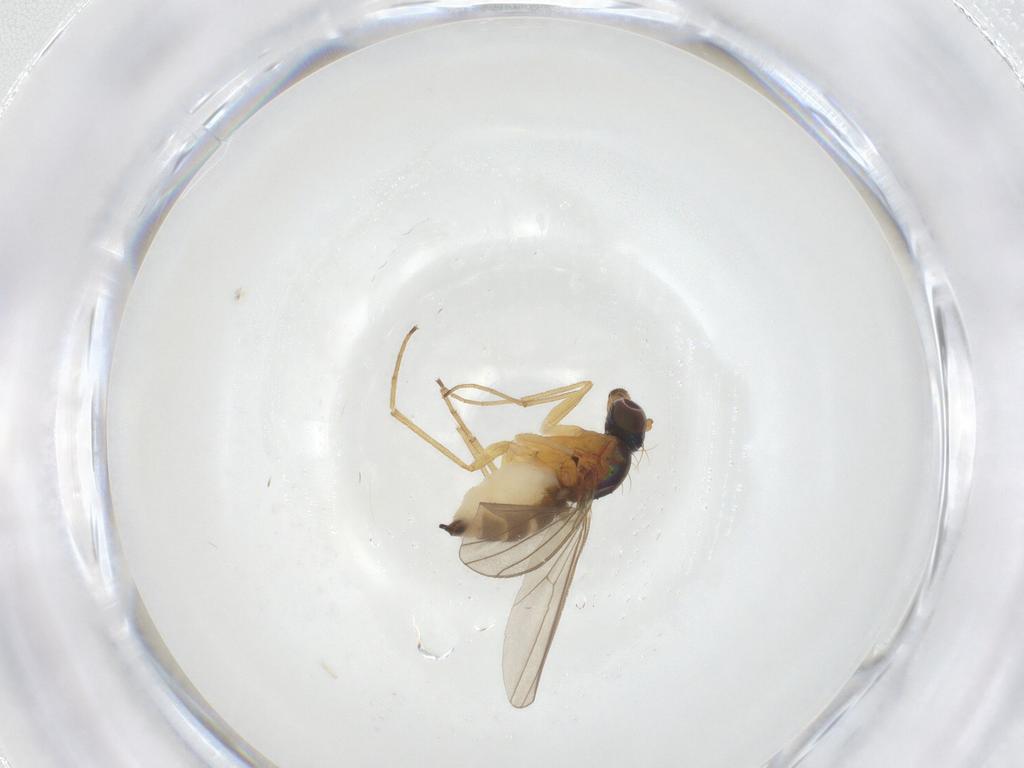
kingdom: Animalia
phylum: Arthropoda
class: Insecta
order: Diptera
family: Dolichopodidae
